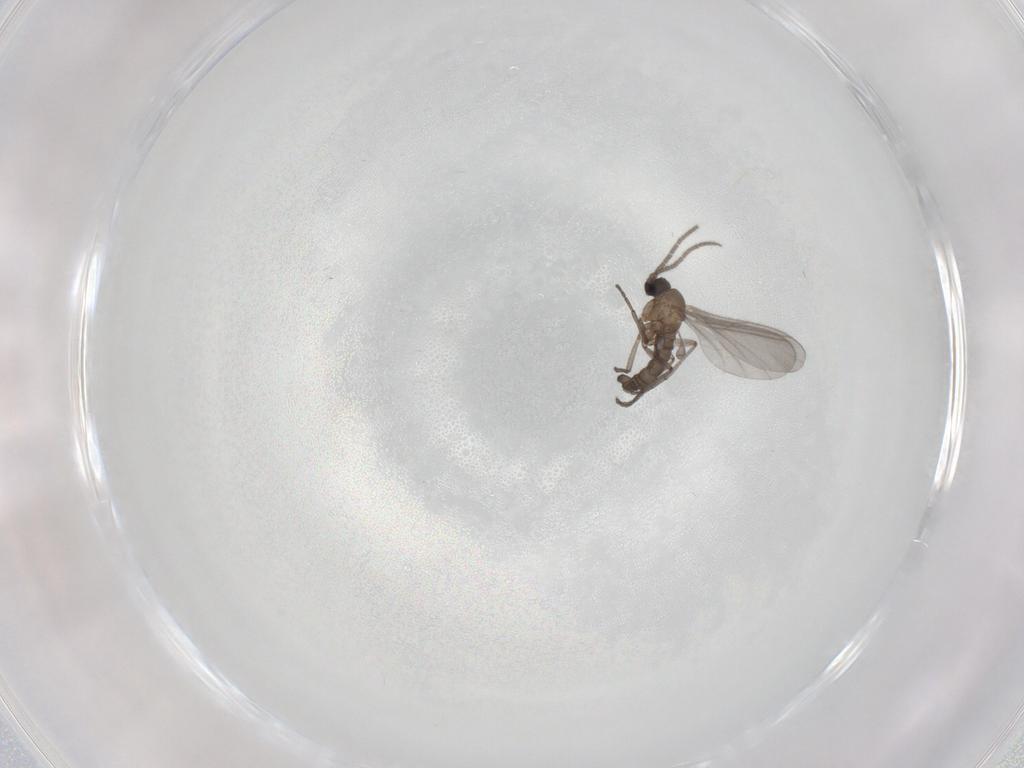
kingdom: Animalia
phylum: Arthropoda
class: Insecta
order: Diptera
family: Sciaridae
